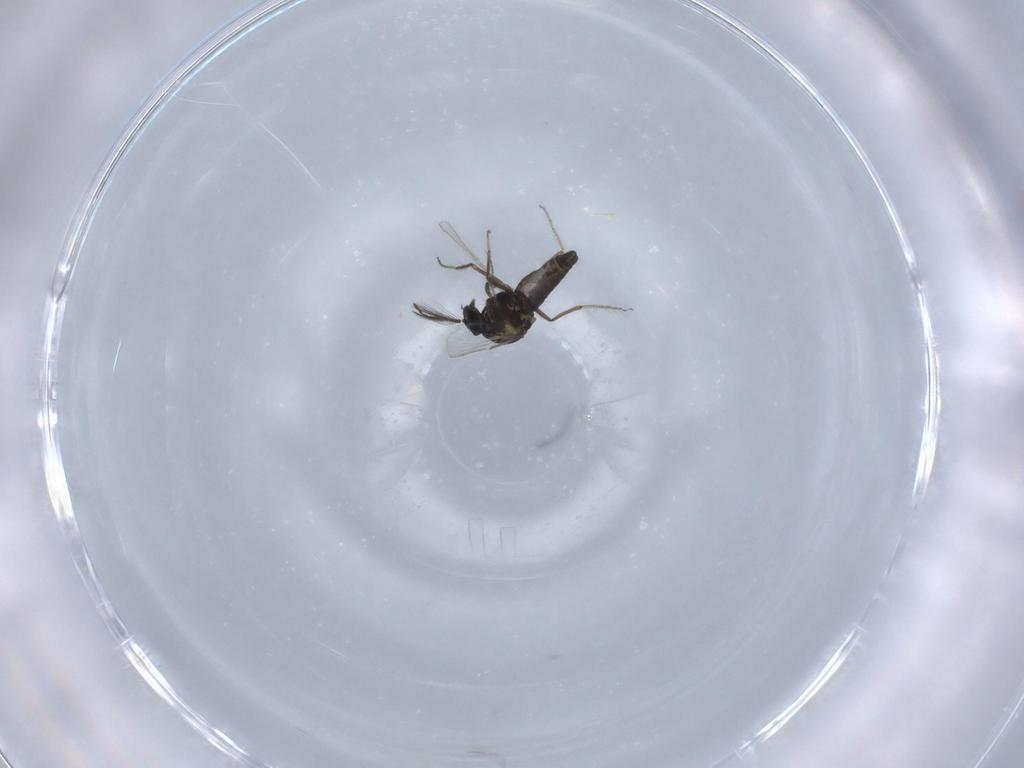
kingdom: Animalia
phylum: Arthropoda
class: Insecta
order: Diptera
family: Ceratopogonidae
